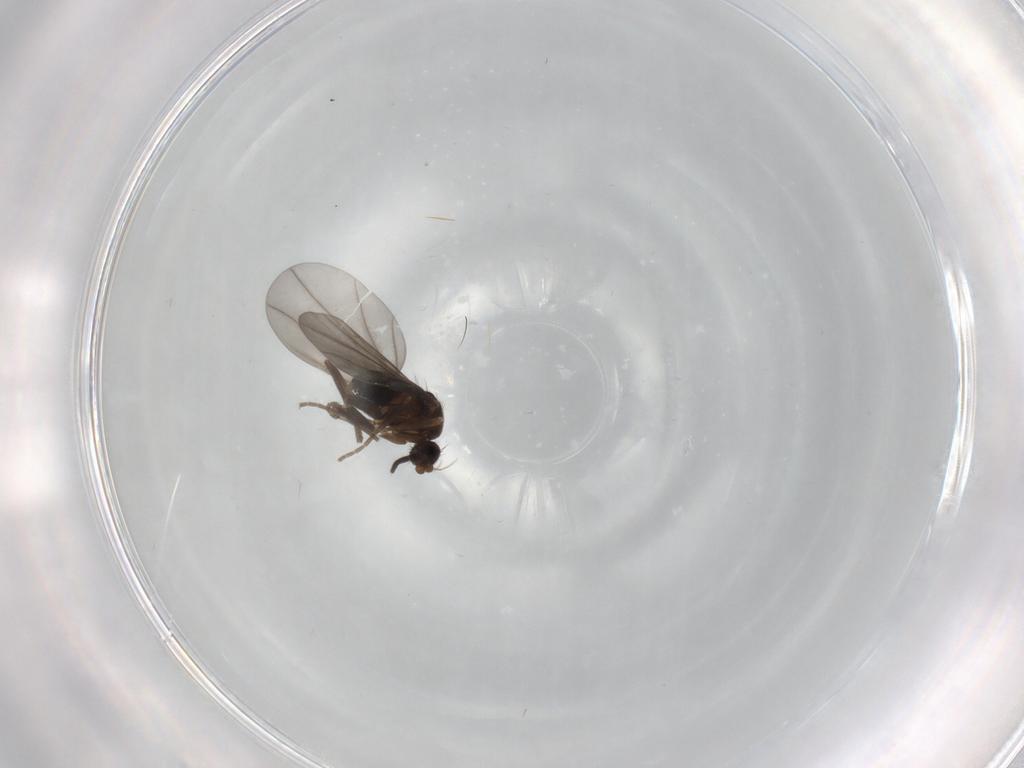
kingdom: Animalia
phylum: Arthropoda
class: Insecta
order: Diptera
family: Phoridae
